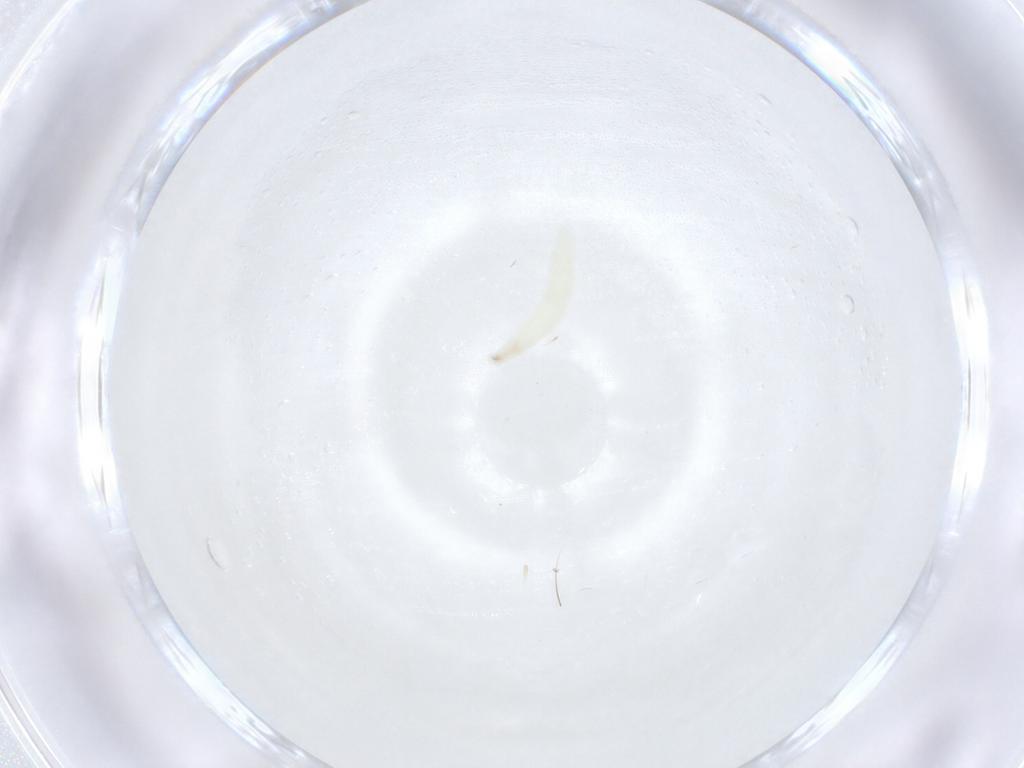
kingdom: Animalia
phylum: Arthropoda
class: Insecta
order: Diptera
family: Sarcophagidae
